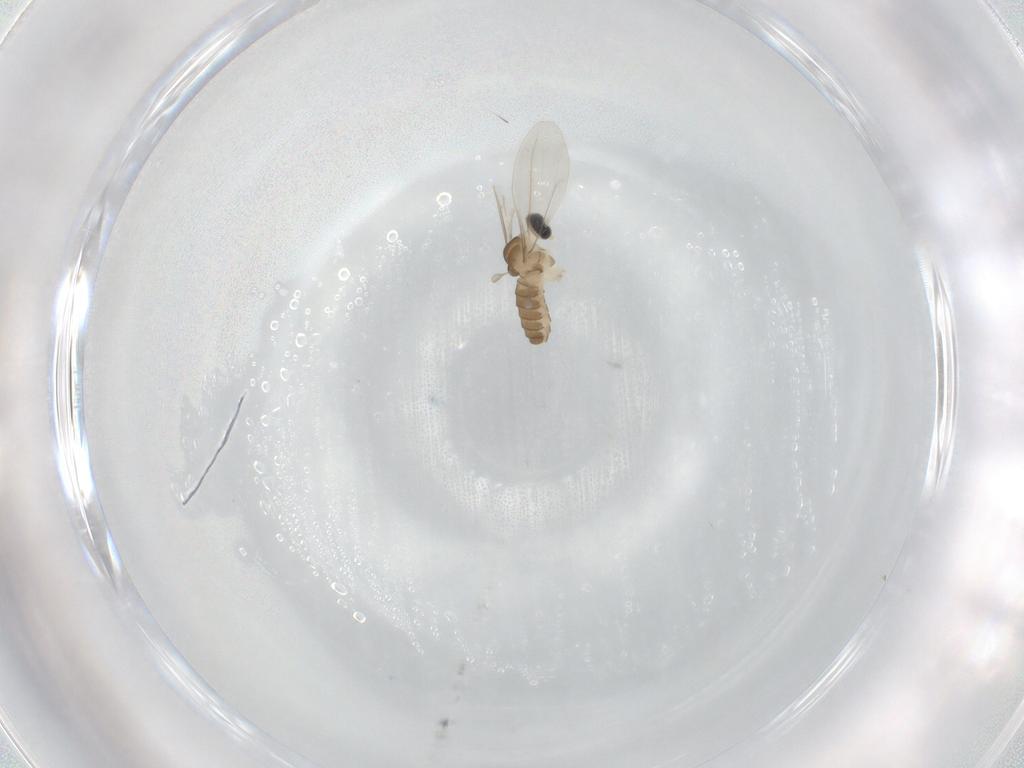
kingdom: Animalia
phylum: Arthropoda
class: Insecta
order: Diptera
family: Cecidomyiidae
